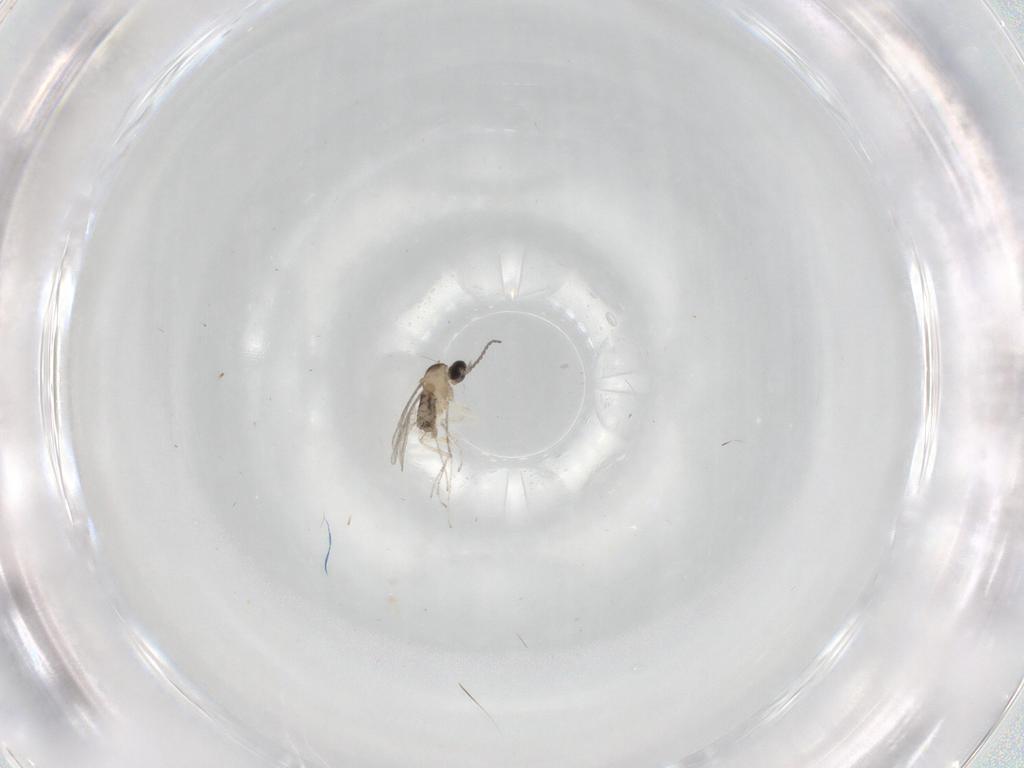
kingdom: Animalia
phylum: Arthropoda
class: Insecta
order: Diptera
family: Cecidomyiidae
